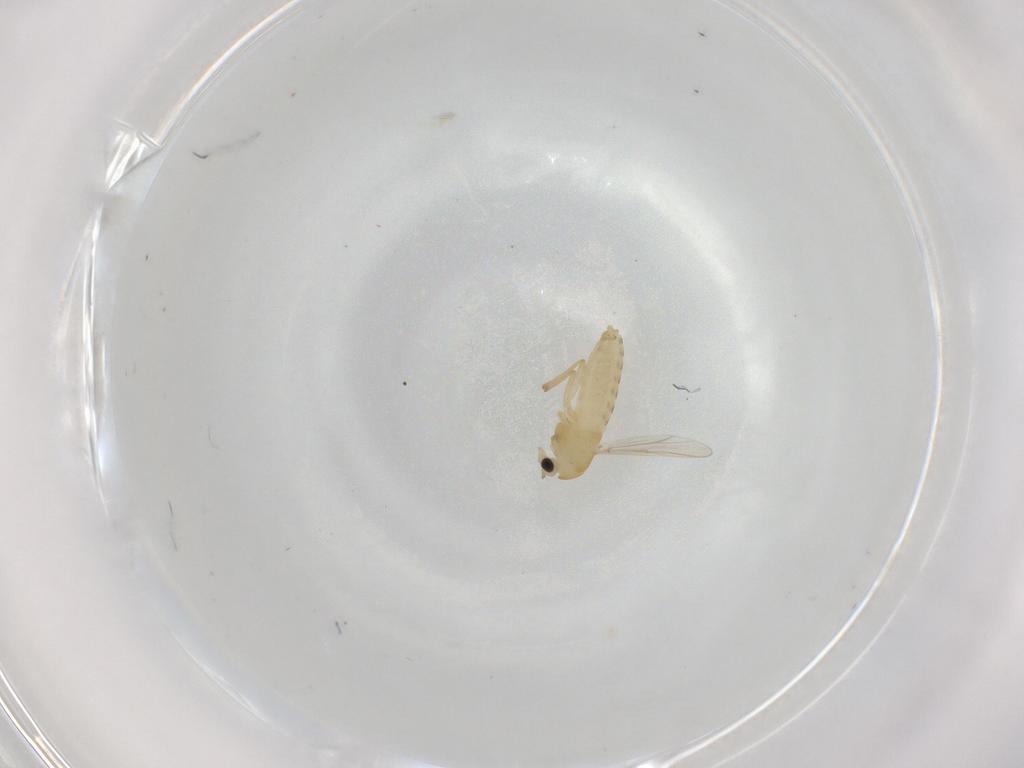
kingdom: Animalia
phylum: Arthropoda
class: Insecta
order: Diptera
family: Chironomidae
